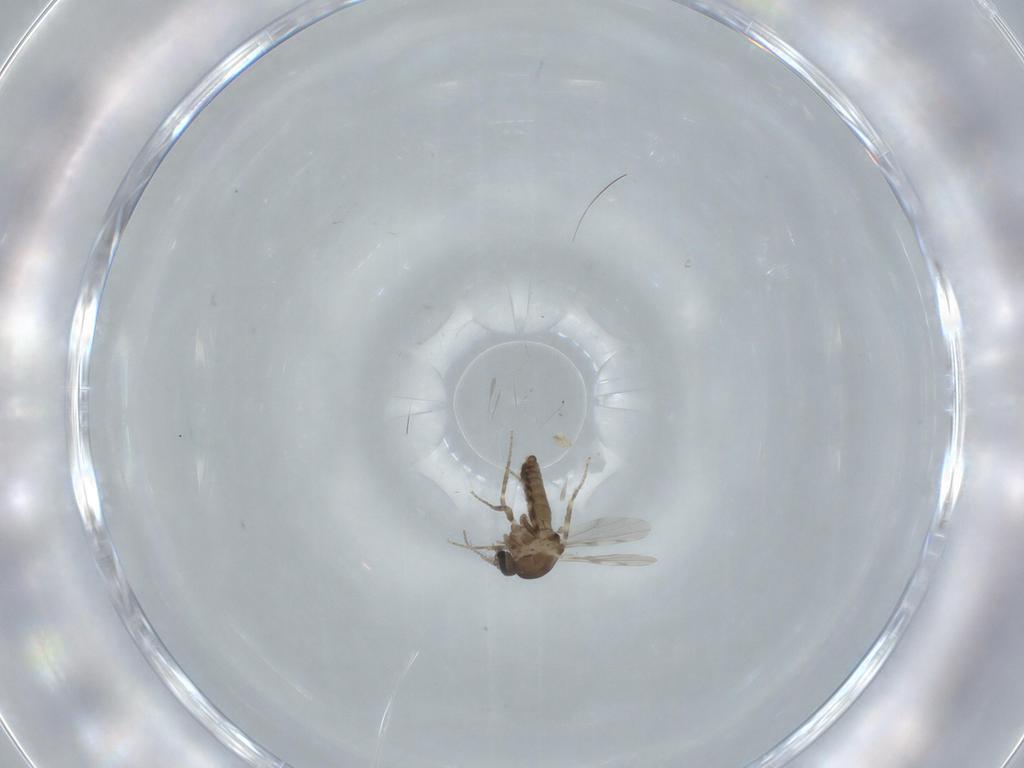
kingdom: Animalia
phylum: Arthropoda
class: Insecta
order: Diptera
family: Ceratopogonidae
